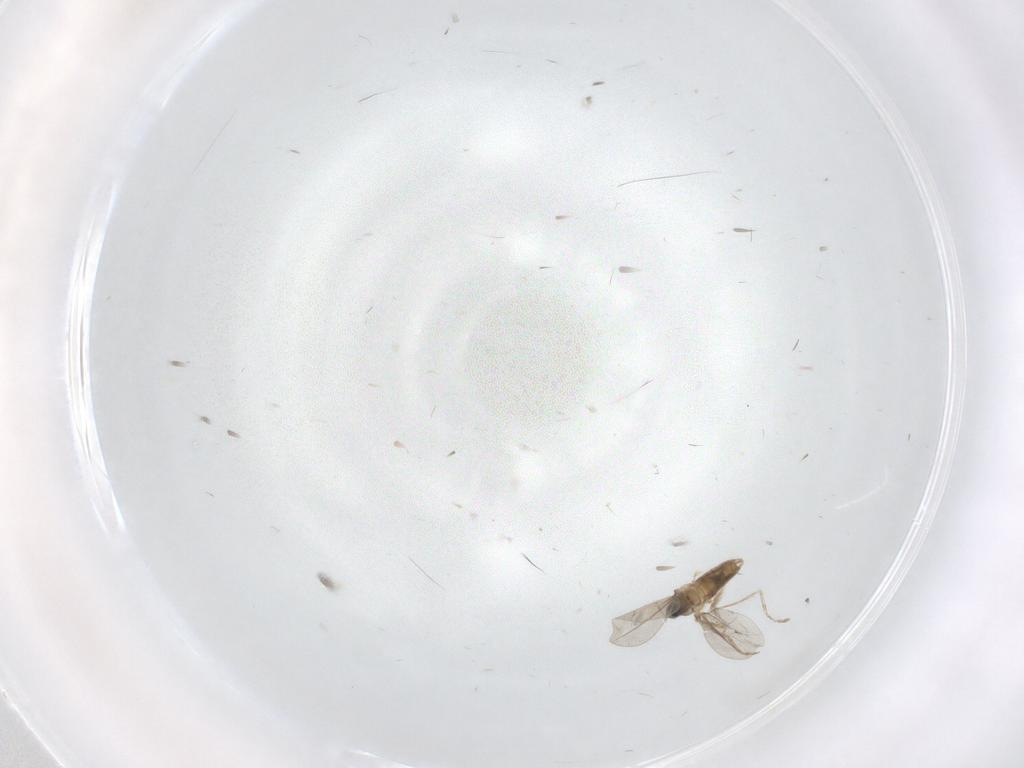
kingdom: Animalia
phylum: Arthropoda
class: Insecta
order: Diptera
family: Chironomidae
